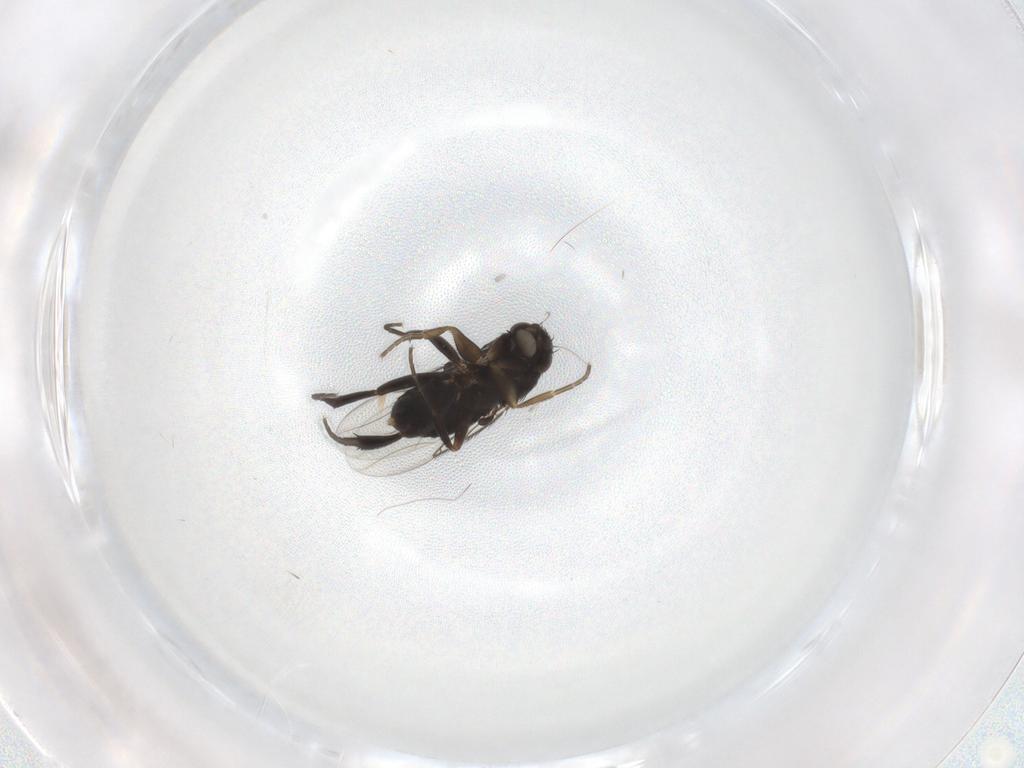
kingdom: Animalia
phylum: Arthropoda
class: Insecta
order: Diptera
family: Phoridae
